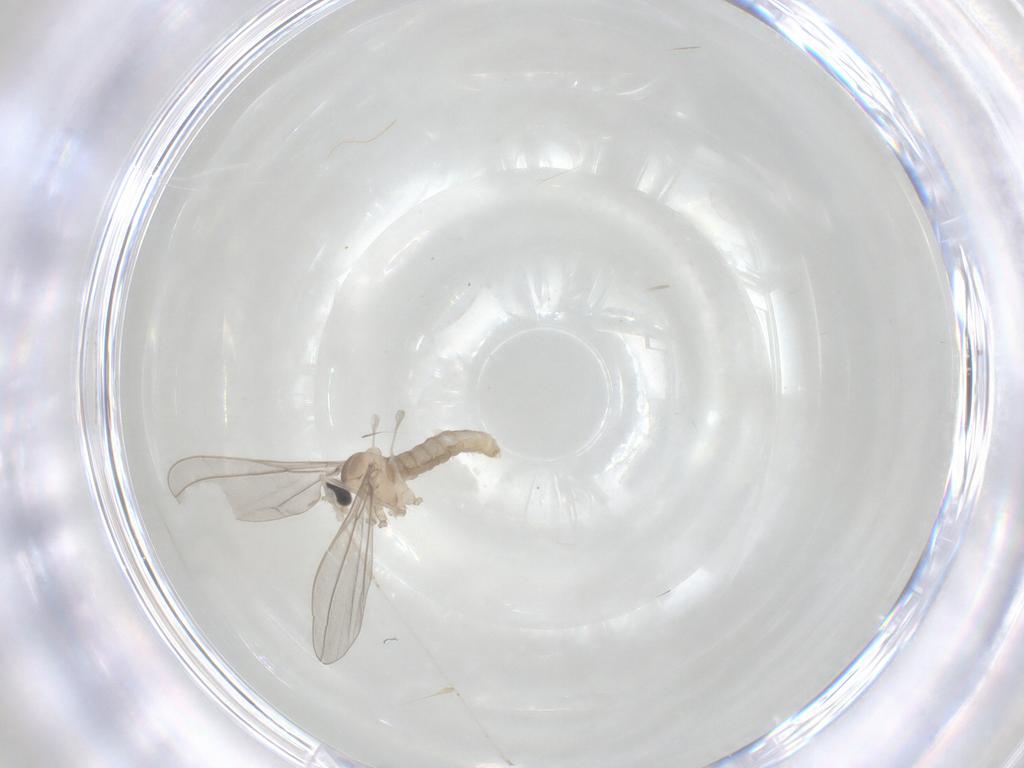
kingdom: Animalia
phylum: Arthropoda
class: Insecta
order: Diptera
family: Cecidomyiidae
